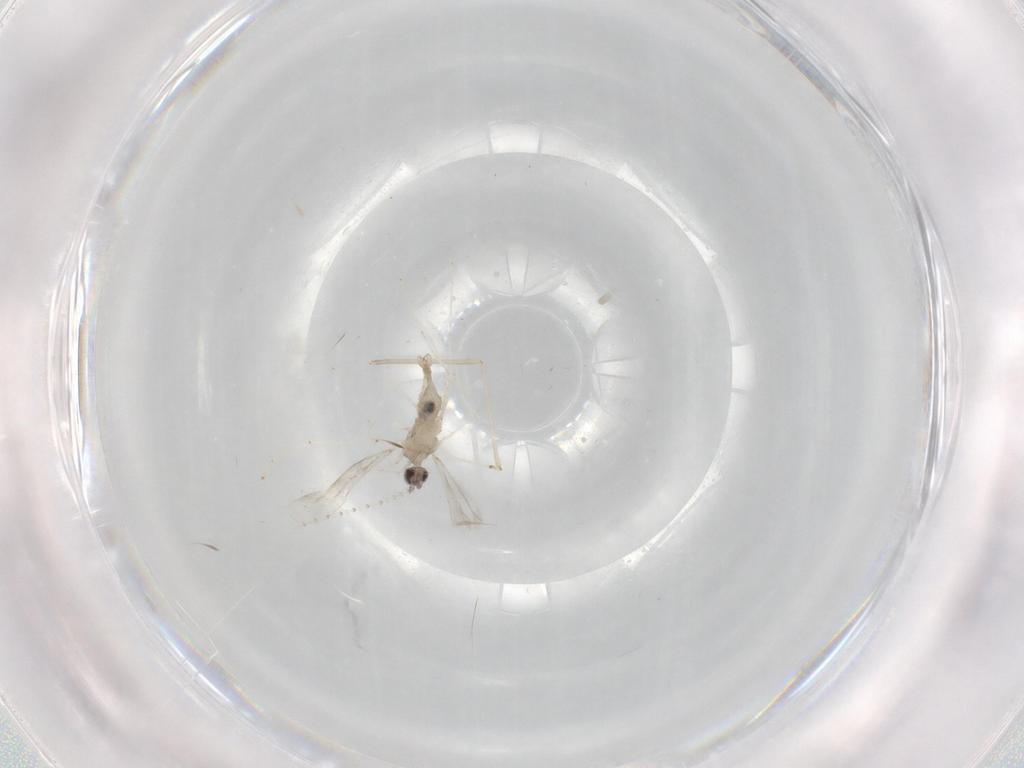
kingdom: Animalia
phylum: Arthropoda
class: Insecta
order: Diptera
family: Cecidomyiidae
